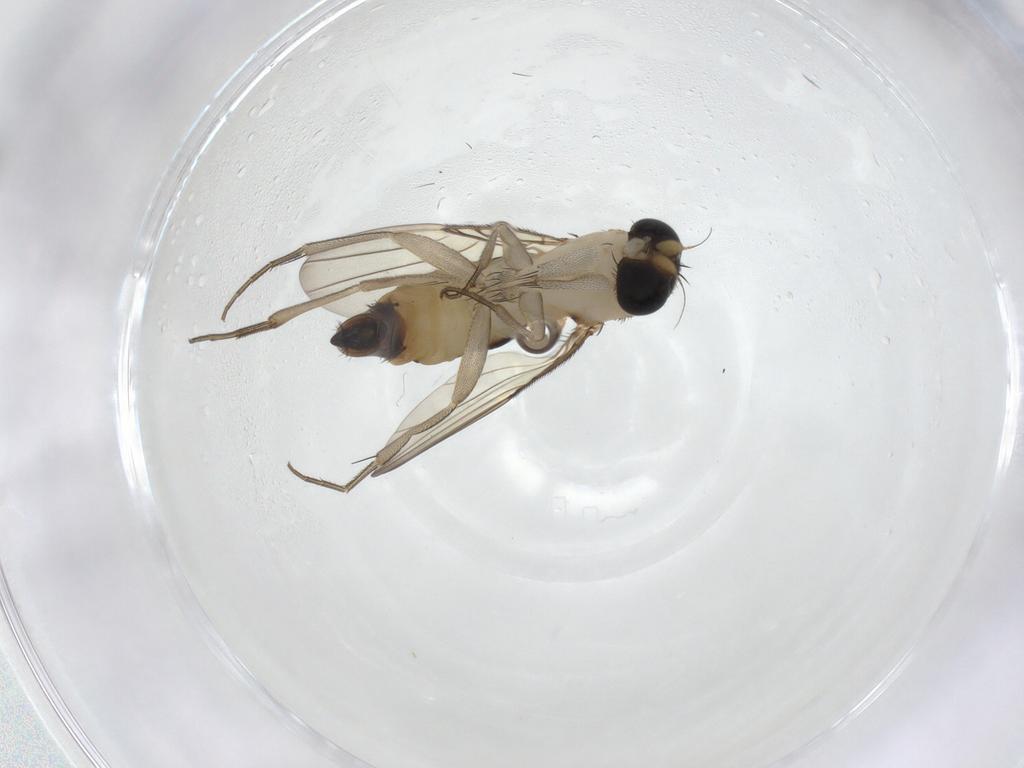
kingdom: Animalia
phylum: Arthropoda
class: Insecta
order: Diptera
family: Phoridae
